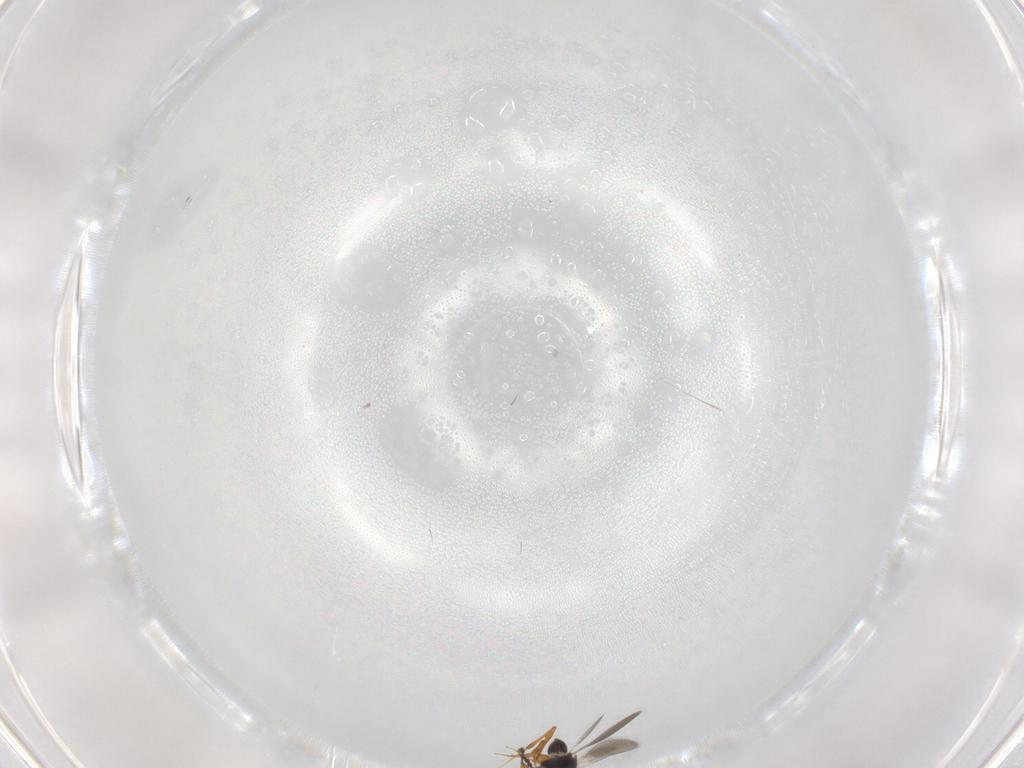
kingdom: Animalia
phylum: Arthropoda
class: Insecta
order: Hymenoptera
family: Platygastridae
